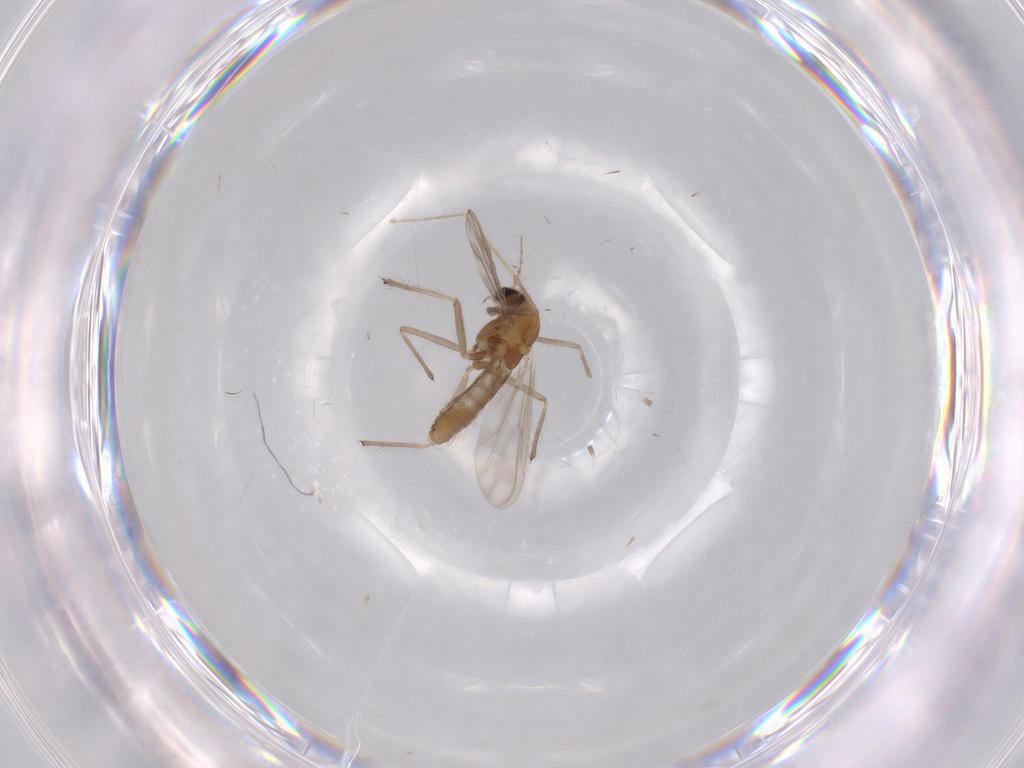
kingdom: Animalia
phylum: Arthropoda
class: Insecta
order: Diptera
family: Chironomidae
